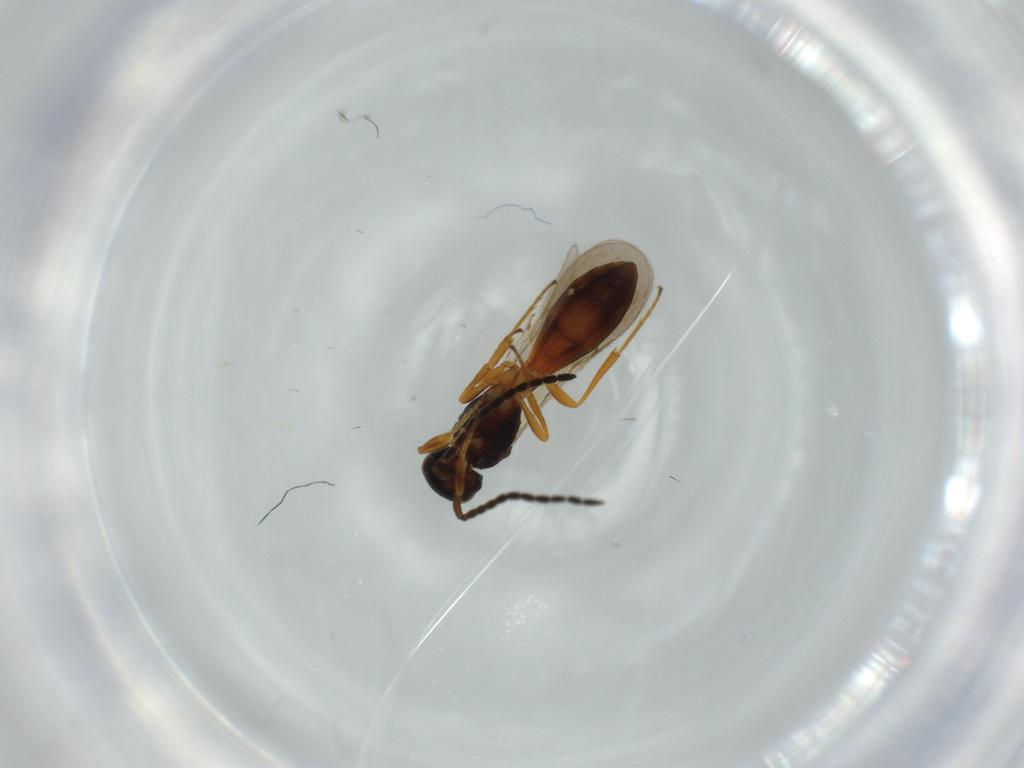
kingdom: Animalia
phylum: Arthropoda
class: Insecta
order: Hymenoptera
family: Scelionidae
